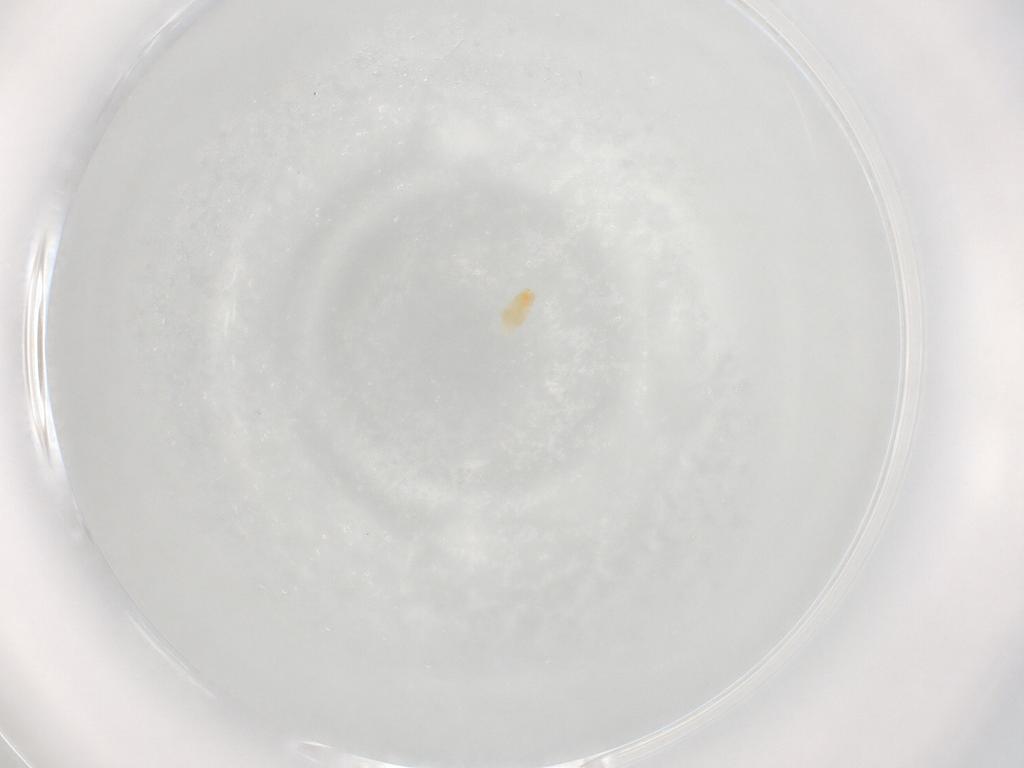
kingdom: Animalia
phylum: Arthropoda
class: Arachnida
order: Trombidiformes
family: Eupodidae
